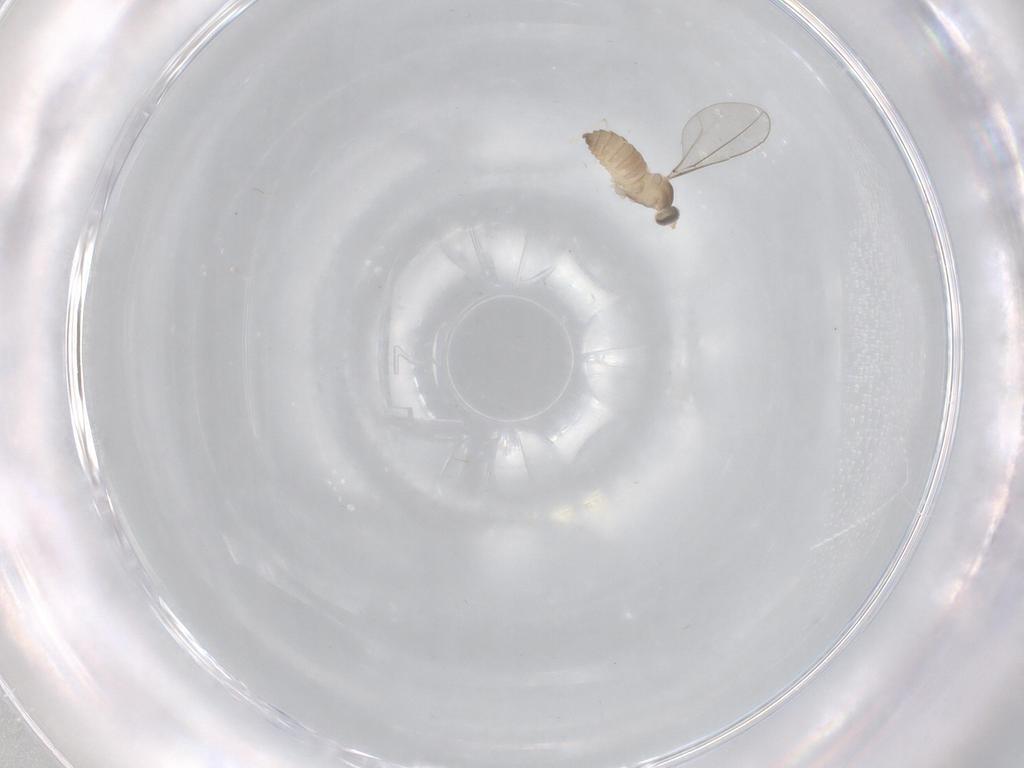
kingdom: Animalia
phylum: Arthropoda
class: Insecta
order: Diptera
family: Cecidomyiidae
